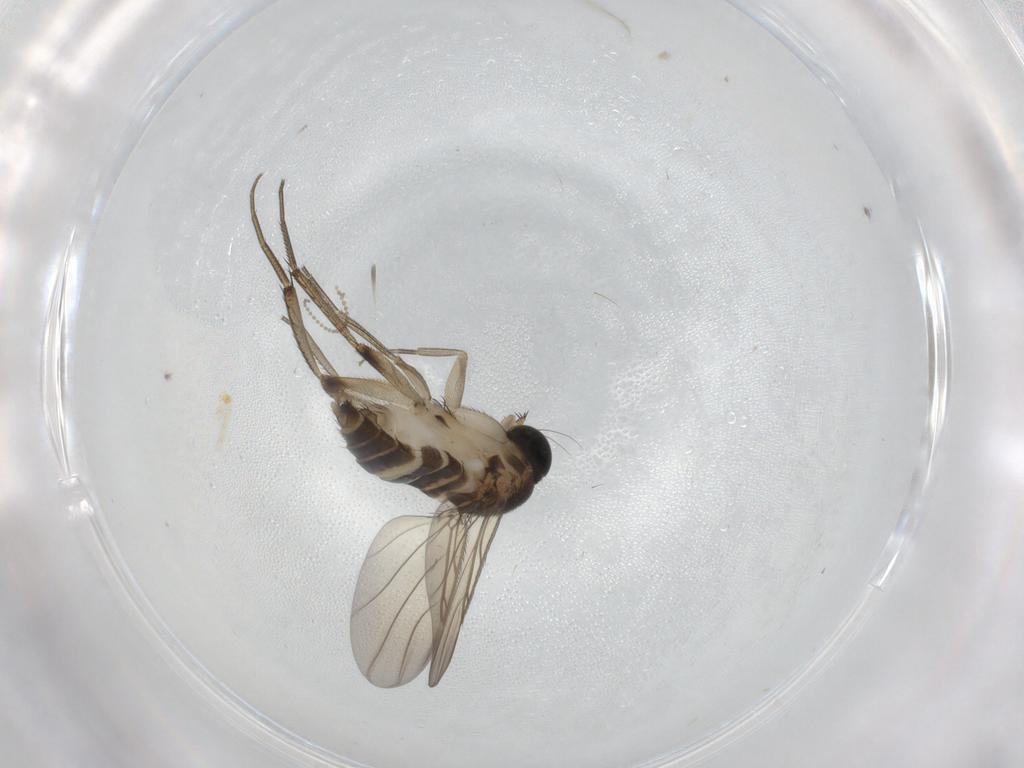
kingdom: Animalia
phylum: Arthropoda
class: Insecta
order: Diptera
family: Phoridae
